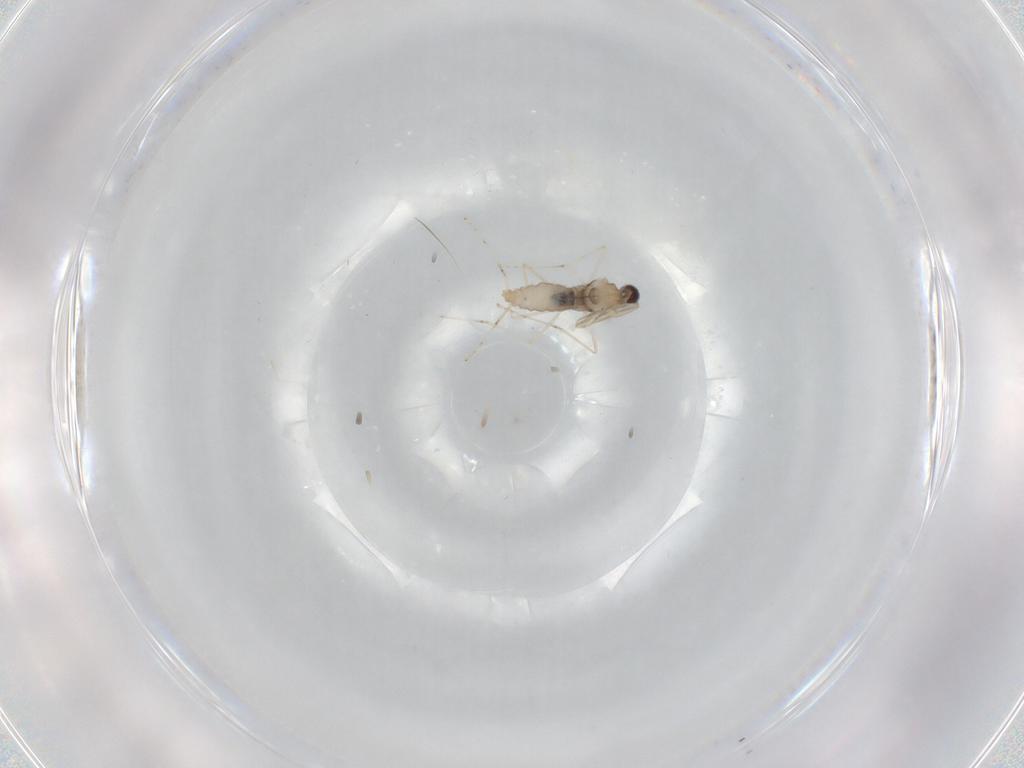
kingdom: Animalia
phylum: Arthropoda
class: Insecta
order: Diptera
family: Cecidomyiidae
